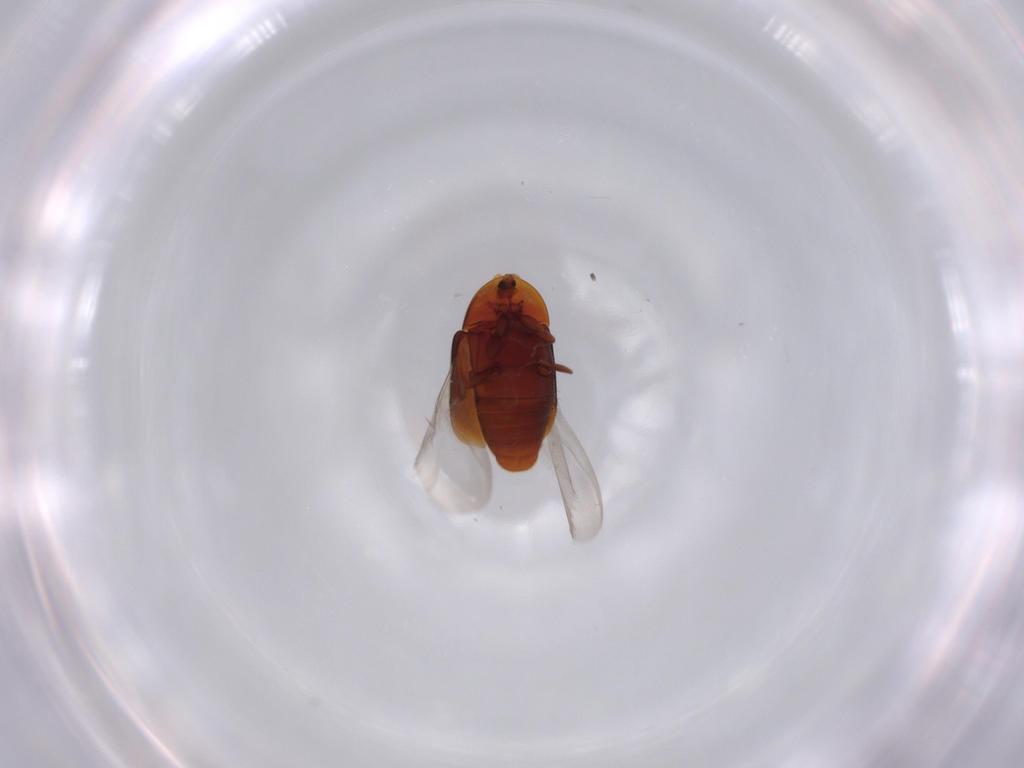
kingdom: Animalia
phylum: Arthropoda
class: Insecta
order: Coleoptera
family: Corylophidae
